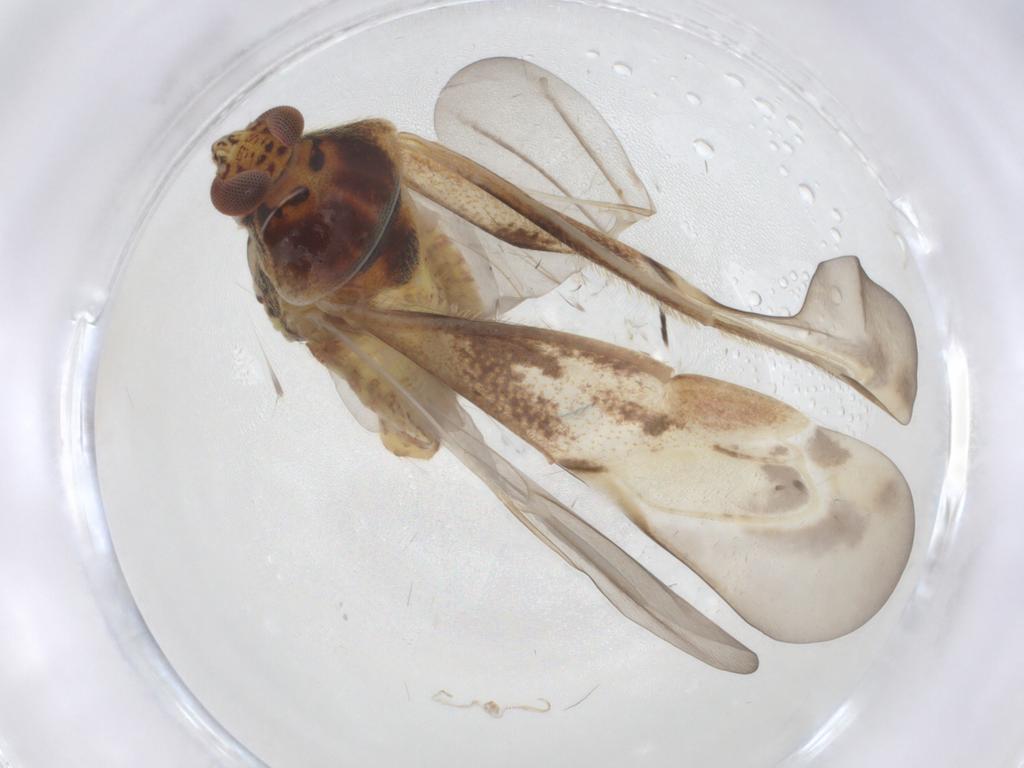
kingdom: Animalia
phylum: Arthropoda
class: Insecta
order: Hemiptera
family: Miridae
